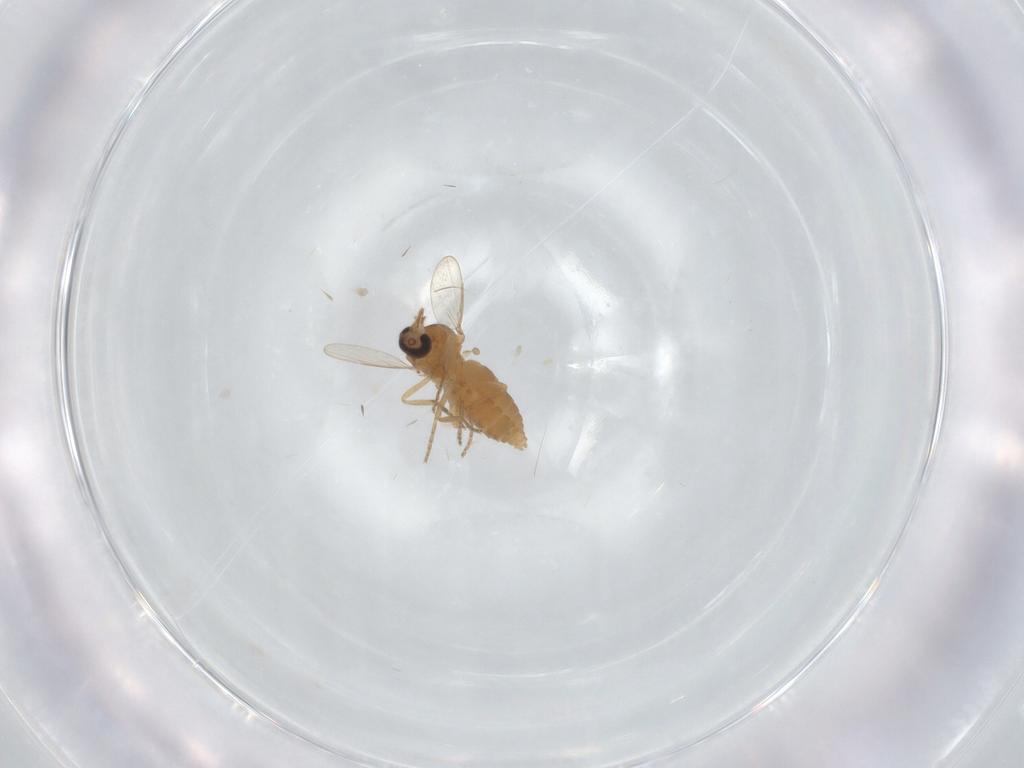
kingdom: Animalia
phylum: Arthropoda
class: Insecta
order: Diptera
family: Ceratopogonidae
